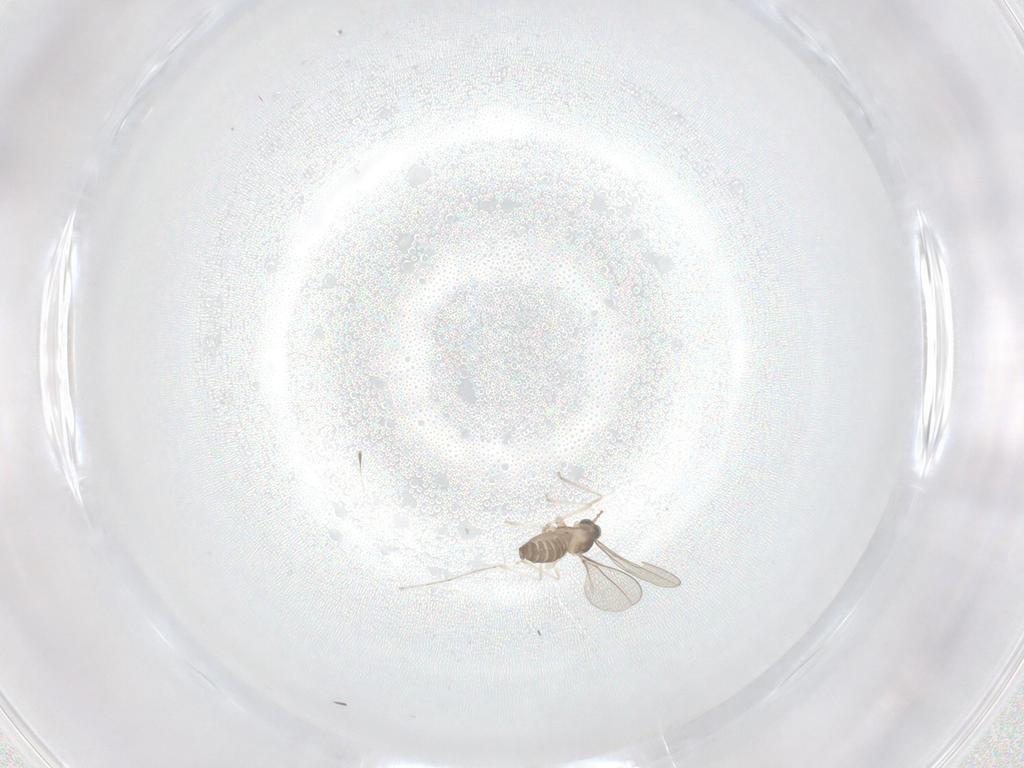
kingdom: Animalia
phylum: Arthropoda
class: Insecta
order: Diptera
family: Cecidomyiidae
